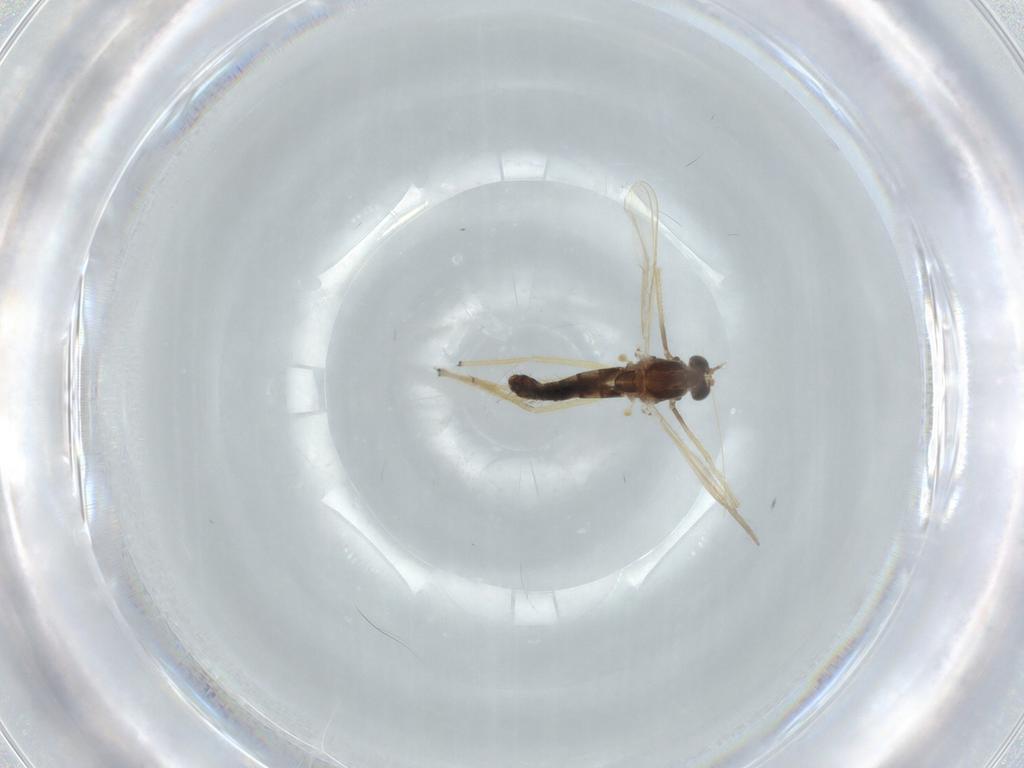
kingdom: Animalia
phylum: Arthropoda
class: Insecta
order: Diptera
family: Chironomidae
